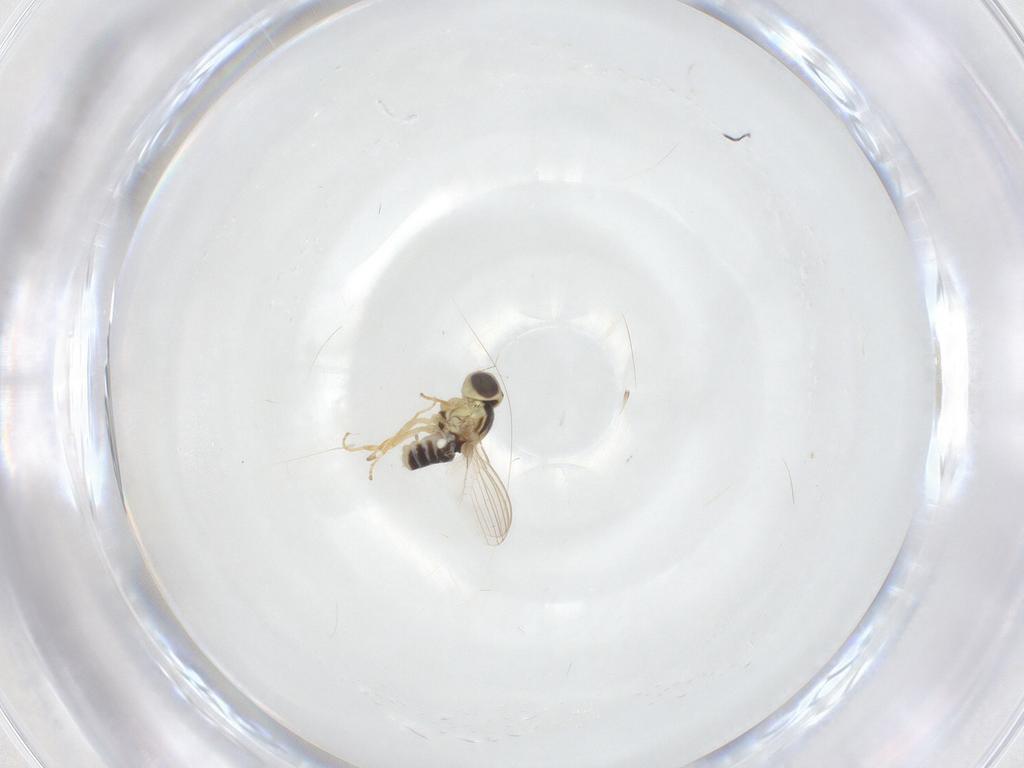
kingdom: Animalia
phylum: Arthropoda
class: Insecta
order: Diptera
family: Chyromyidae
